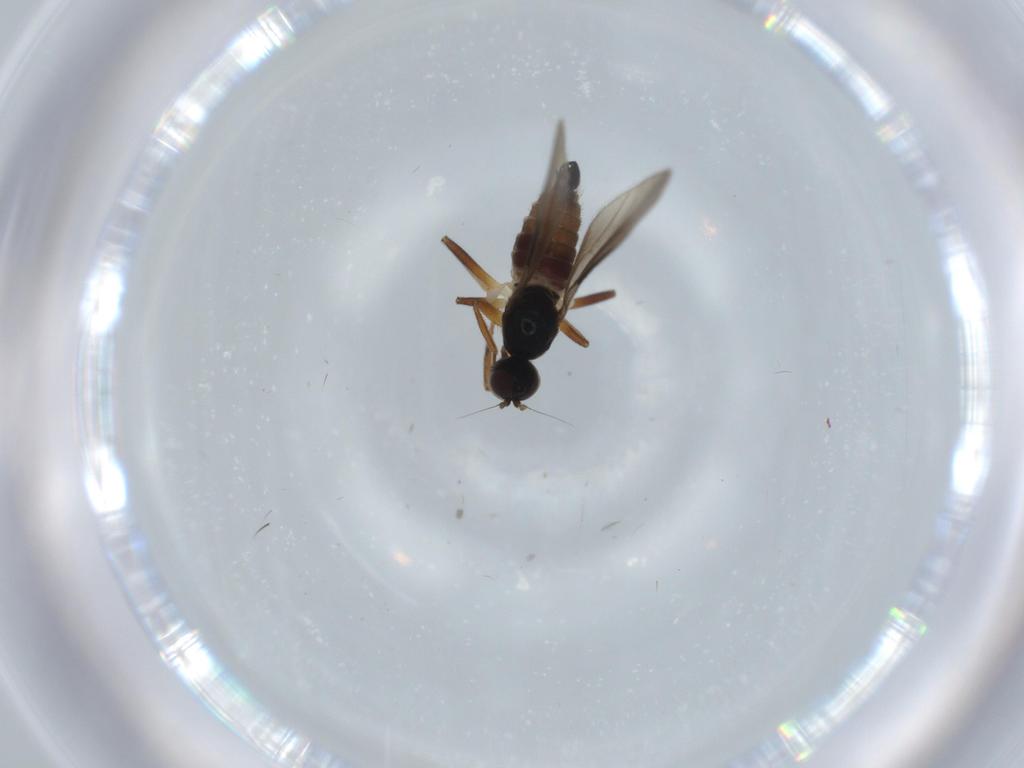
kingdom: Animalia
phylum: Arthropoda
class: Insecta
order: Diptera
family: Hybotidae
